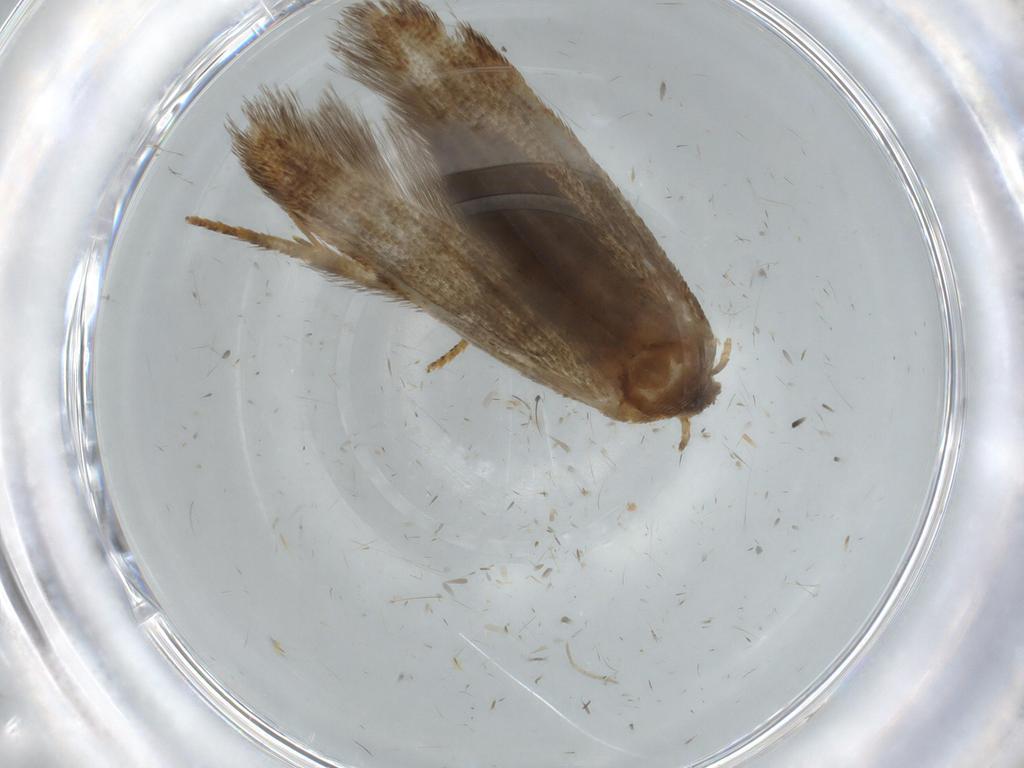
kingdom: Animalia
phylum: Arthropoda
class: Insecta
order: Lepidoptera
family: Blastobasidae
